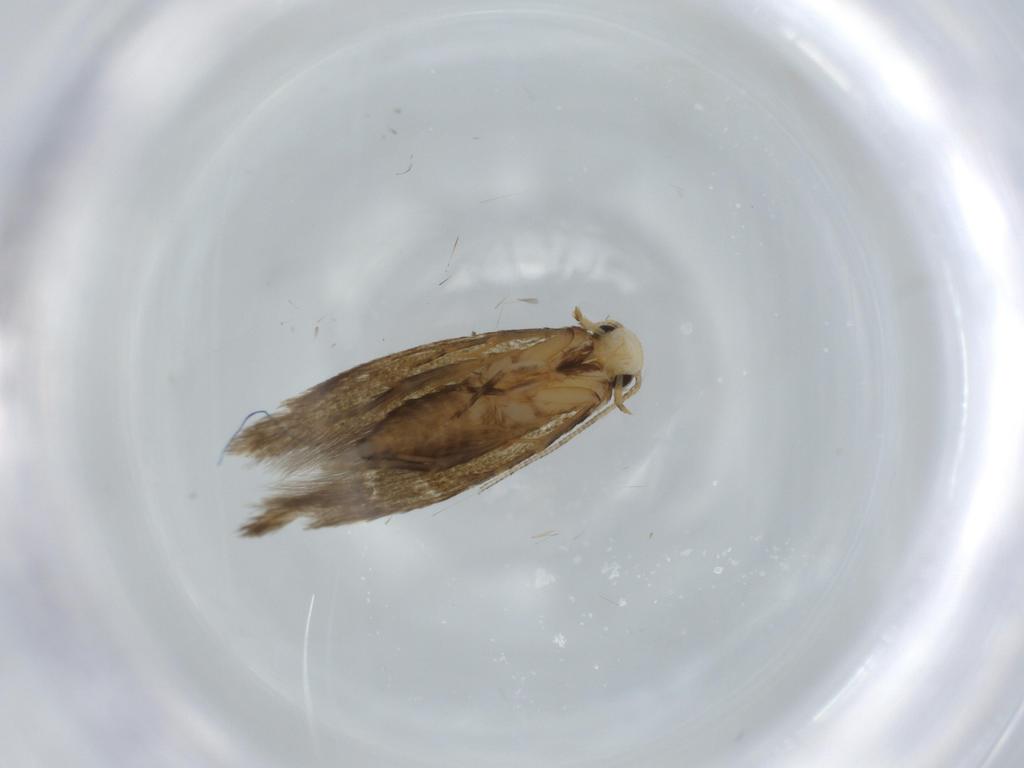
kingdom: Animalia
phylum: Arthropoda
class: Insecta
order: Lepidoptera
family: Tineidae
